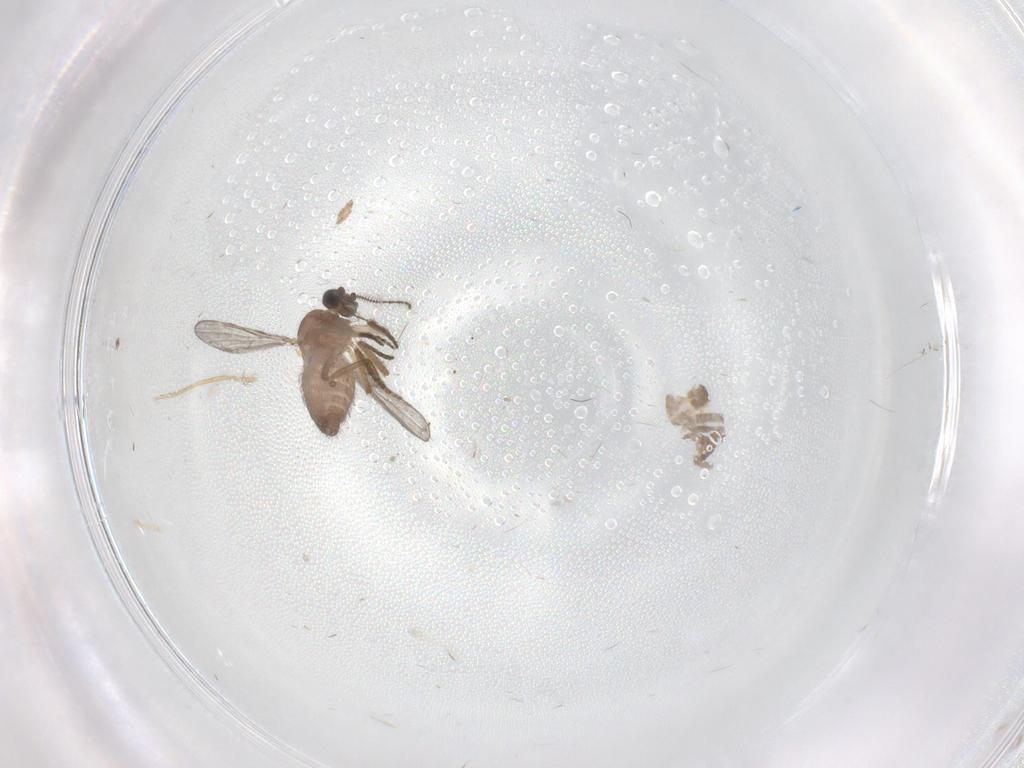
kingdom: Animalia
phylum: Arthropoda
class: Insecta
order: Diptera
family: Ceratopogonidae
